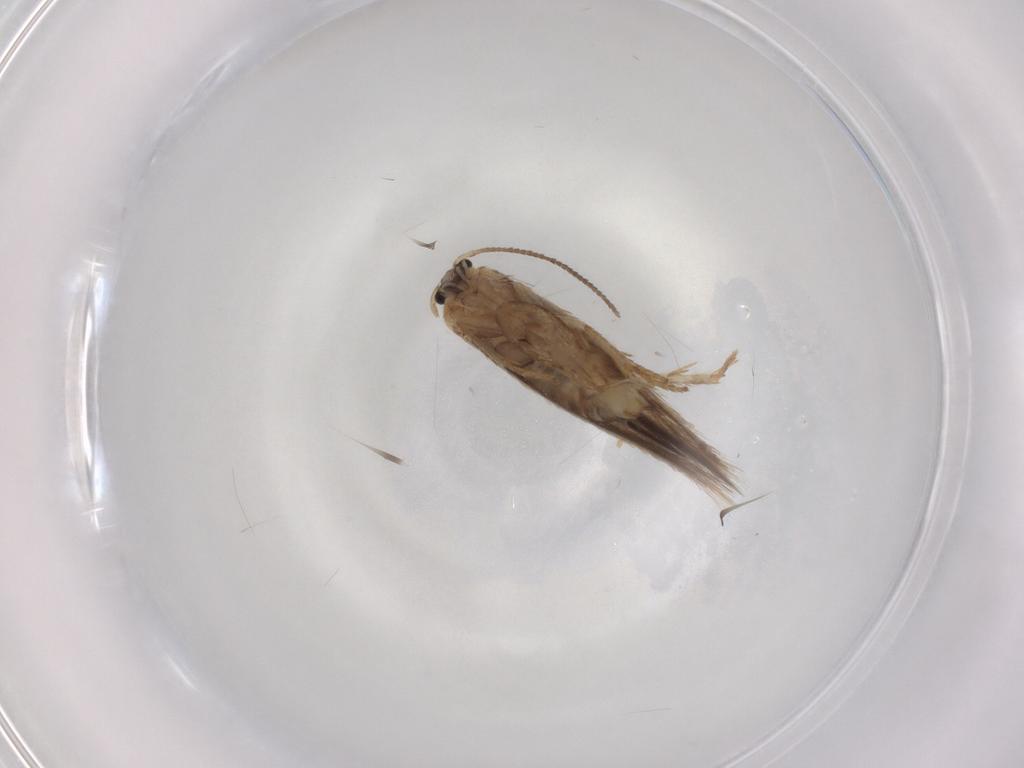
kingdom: Animalia
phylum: Arthropoda
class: Insecta
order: Lepidoptera
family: Nepticulidae
